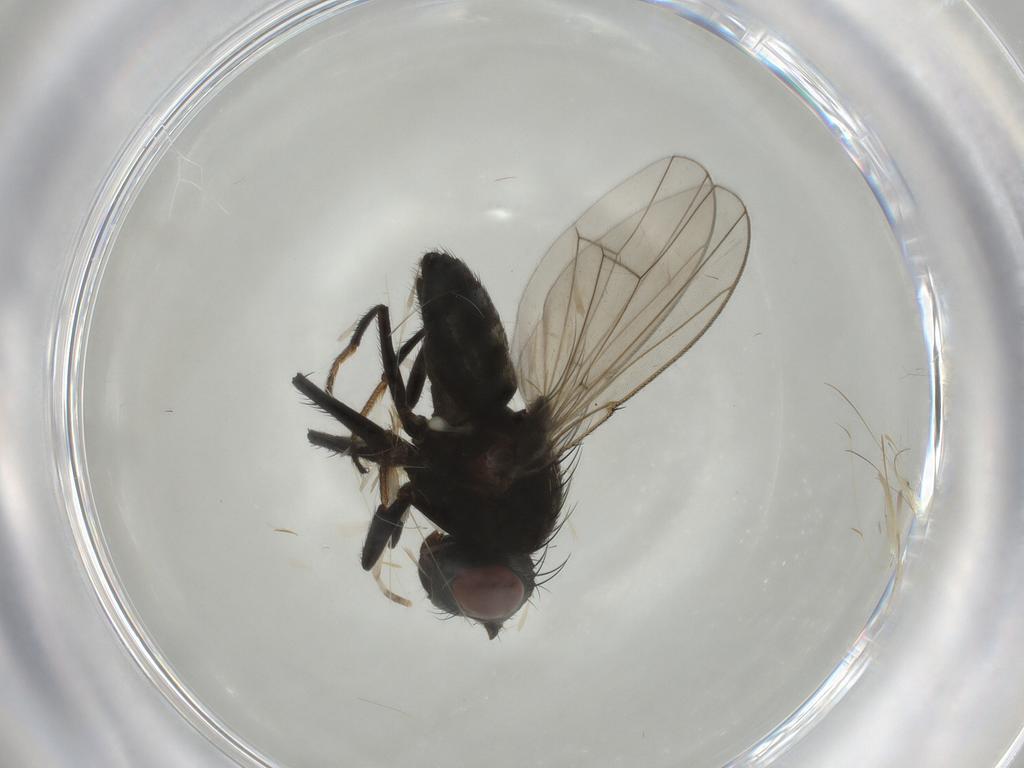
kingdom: Animalia
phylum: Arthropoda
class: Insecta
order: Diptera
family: Ephydridae
